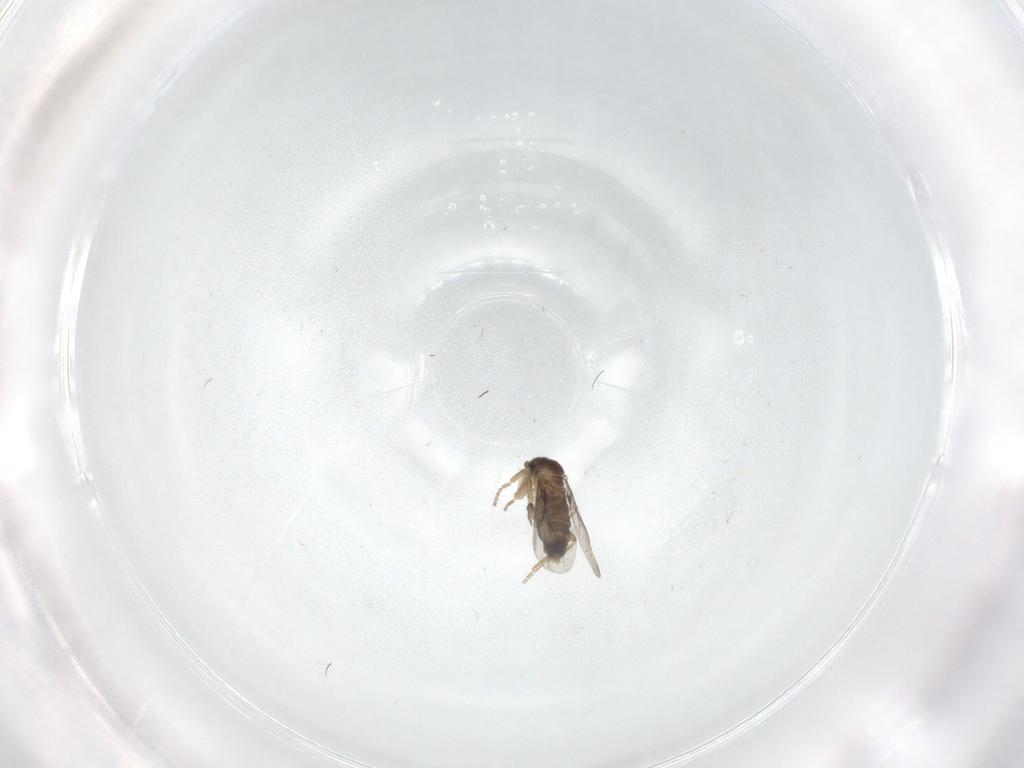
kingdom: Animalia
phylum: Arthropoda
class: Insecta
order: Diptera
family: Phoridae
